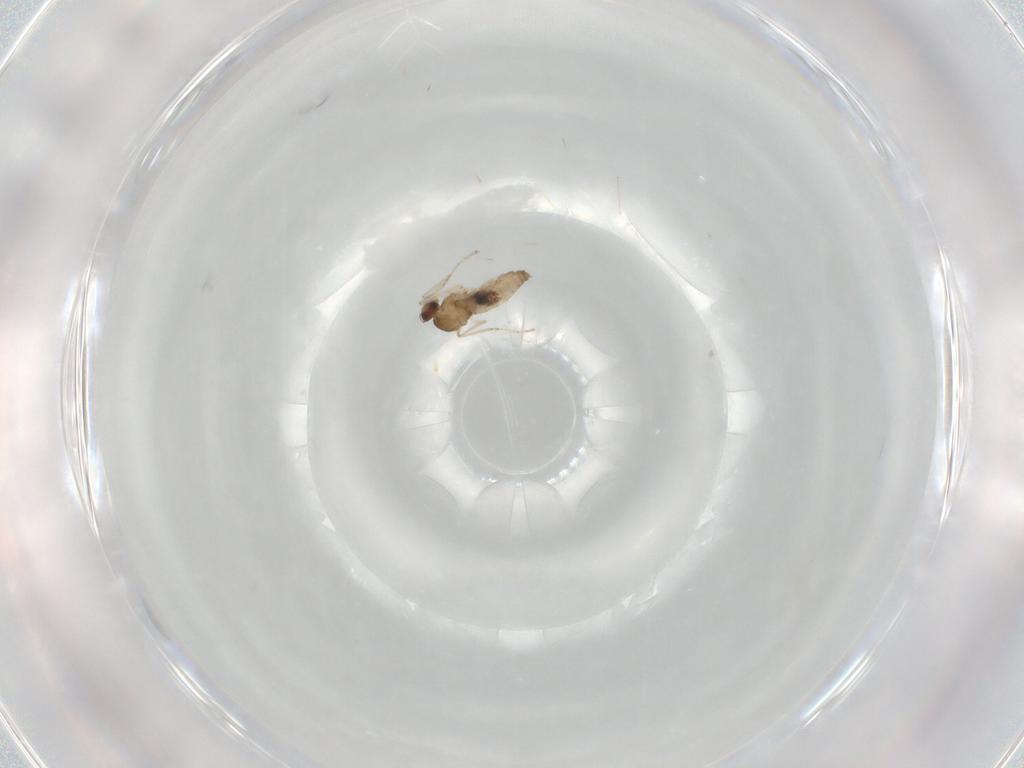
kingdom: Animalia
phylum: Arthropoda
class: Insecta
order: Diptera
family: Cecidomyiidae
